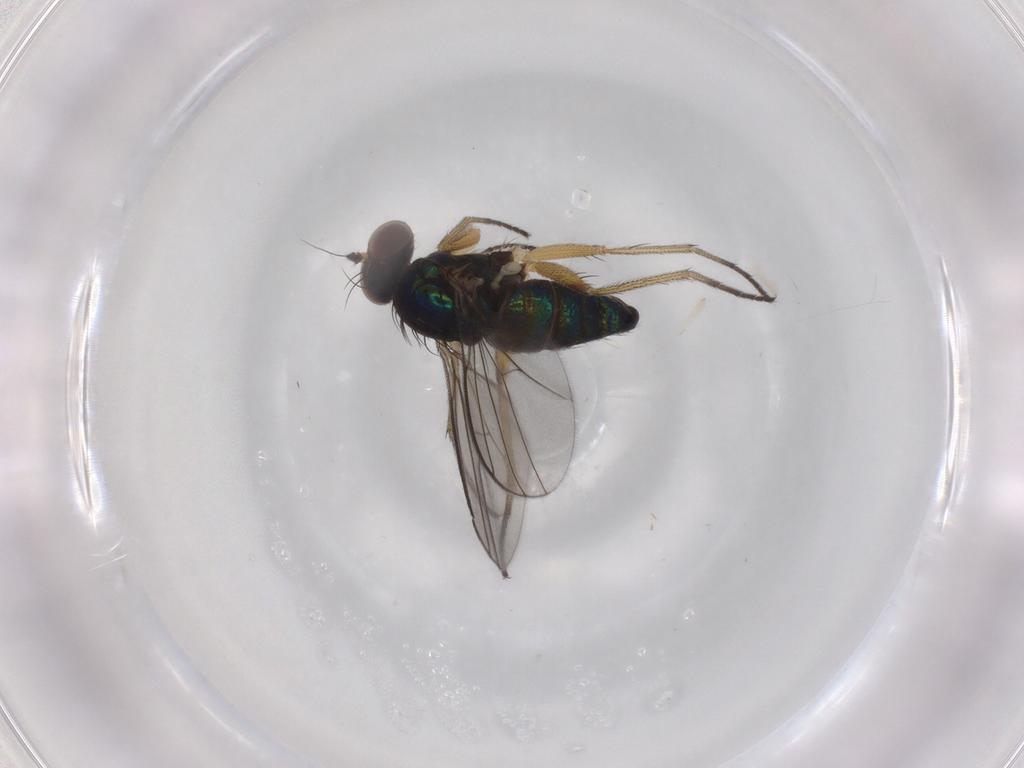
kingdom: Animalia
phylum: Arthropoda
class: Insecta
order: Diptera
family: Dolichopodidae
